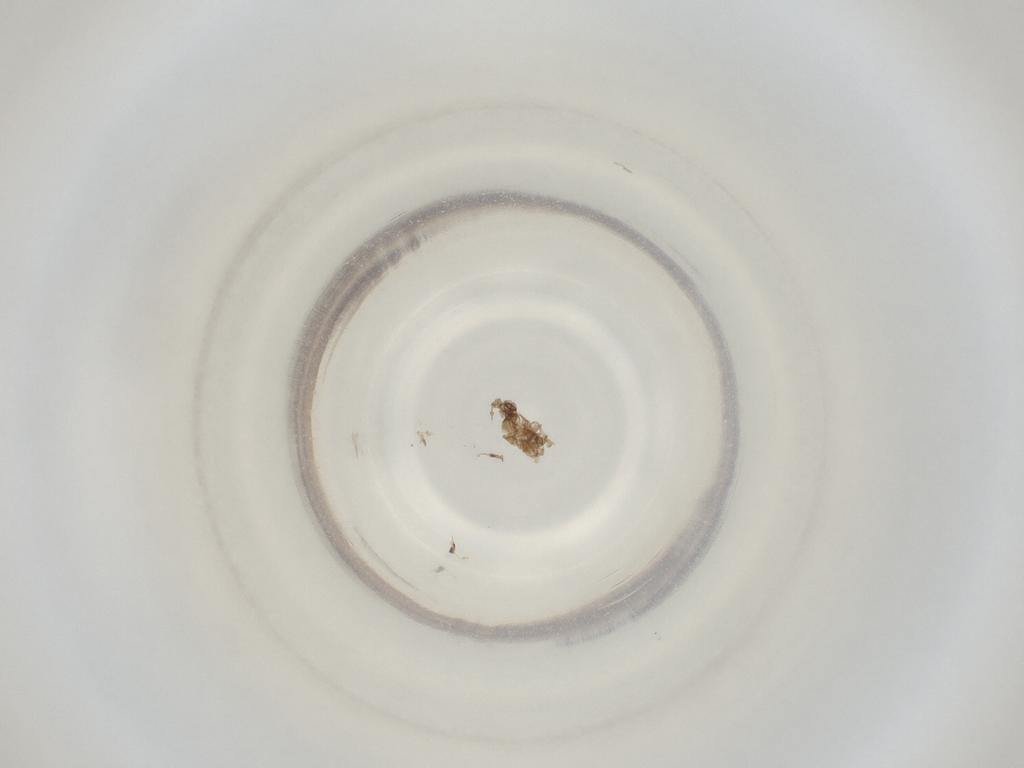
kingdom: Animalia
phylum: Arthropoda
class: Insecta
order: Diptera
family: Cecidomyiidae
